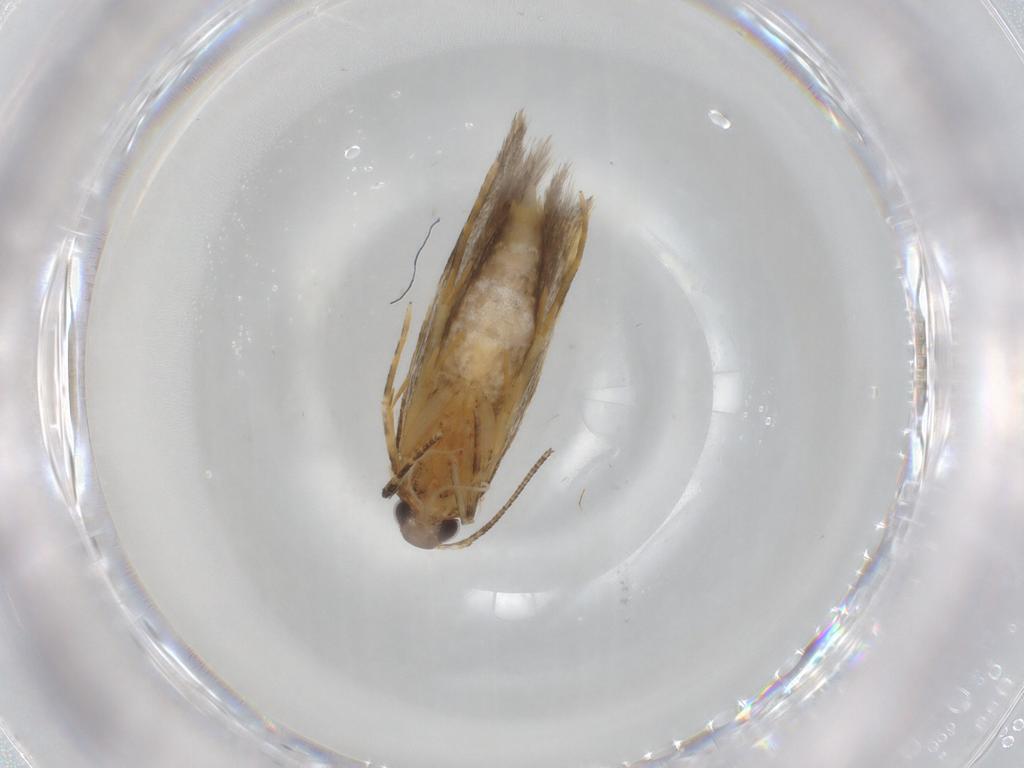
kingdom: Animalia
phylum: Arthropoda
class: Insecta
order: Lepidoptera
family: Autostichidae
